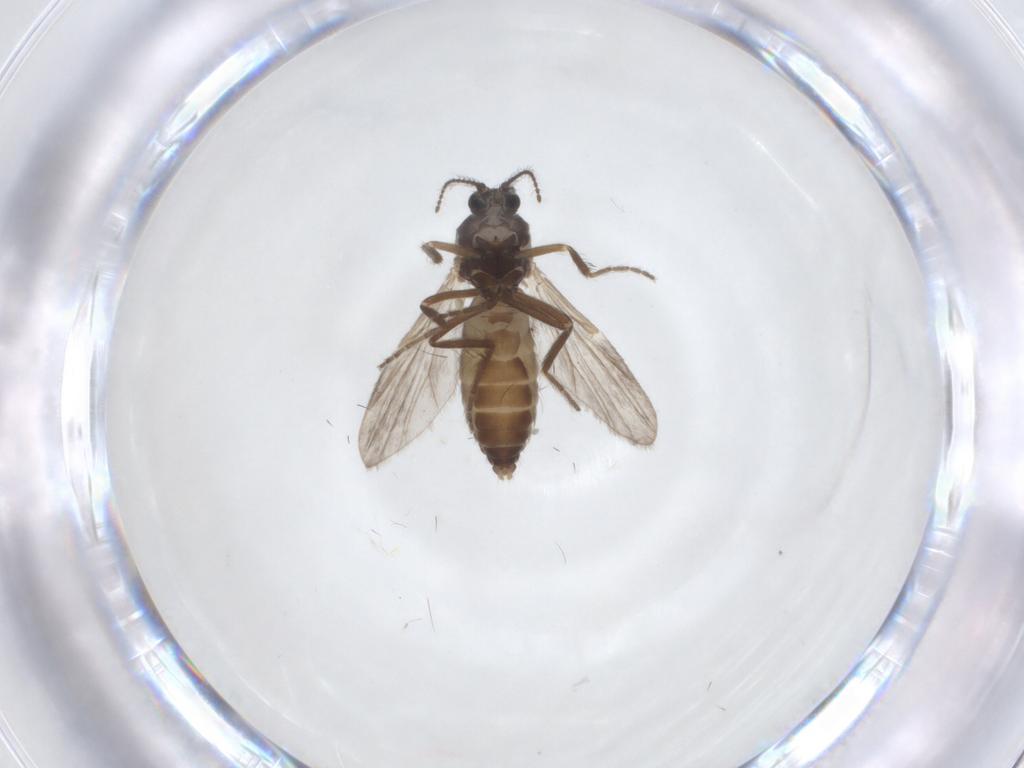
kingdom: Animalia
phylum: Arthropoda
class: Insecta
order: Diptera
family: Ceratopogonidae
